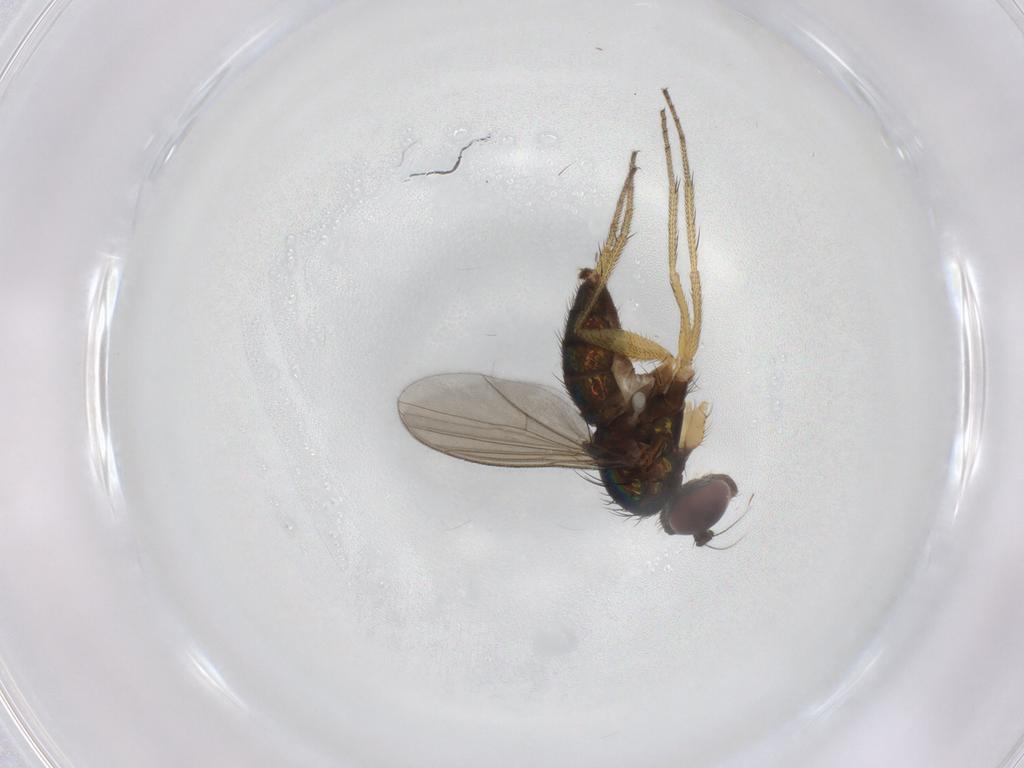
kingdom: Animalia
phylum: Arthropoda
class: Insecta
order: Diptera
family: Dolichopodidae
